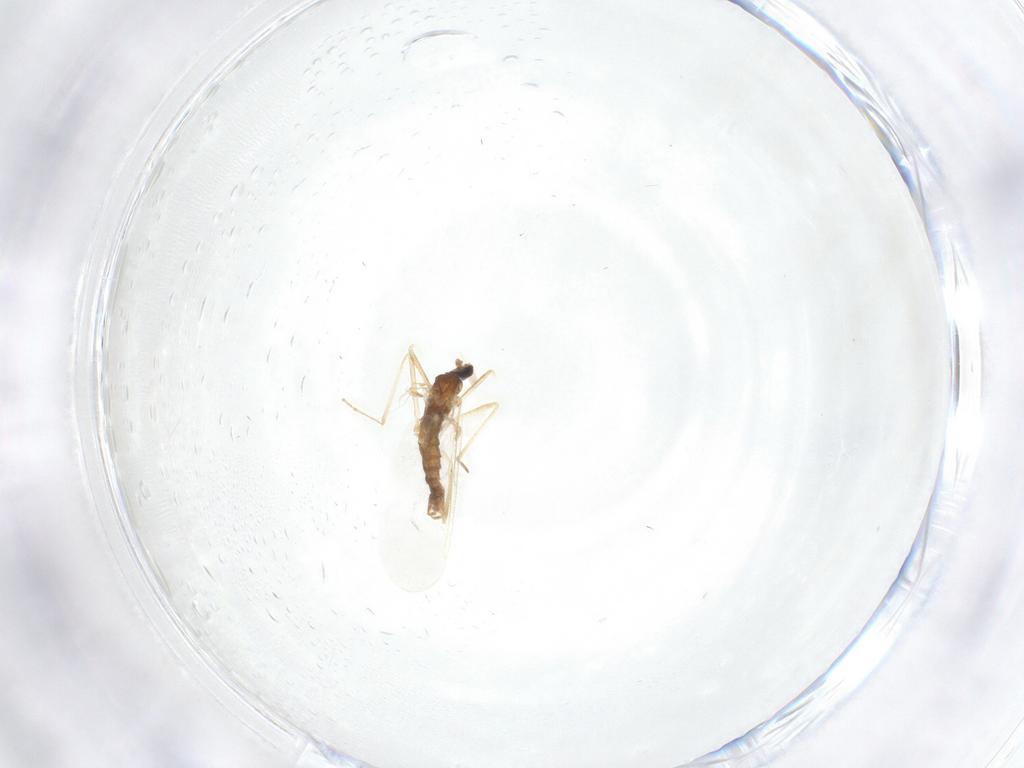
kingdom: Animalia
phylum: Arthropoda
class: Insecta
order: Diptera
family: Cecidomyiidae
